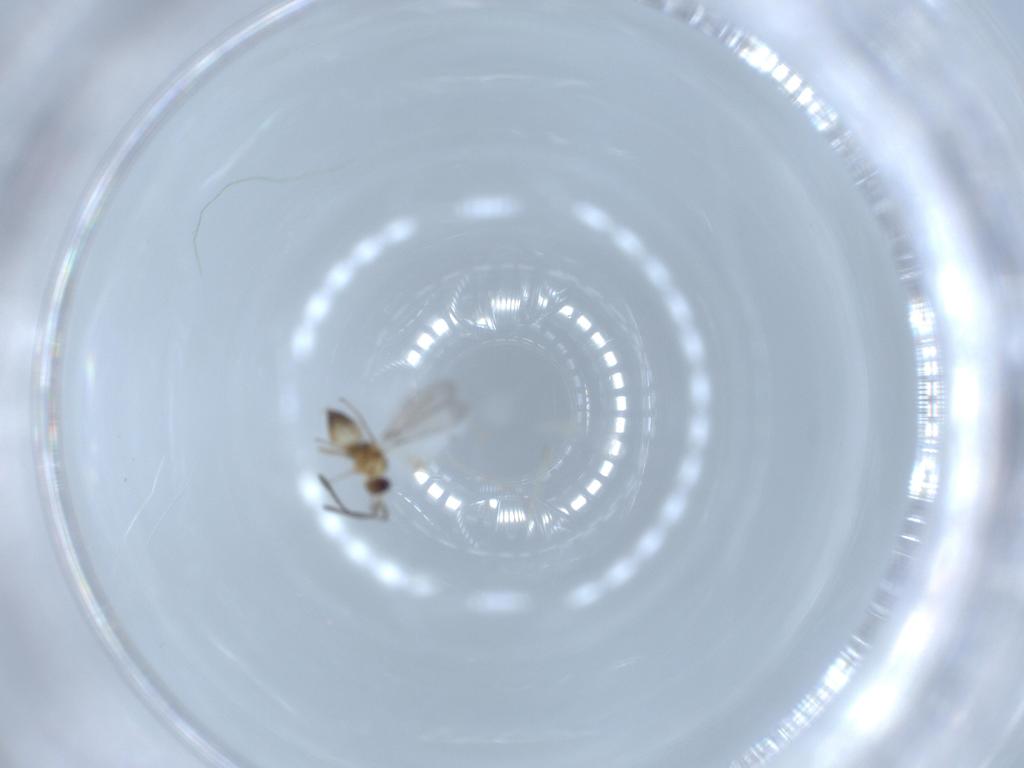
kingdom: Animalia
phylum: Arthropoda
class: Insecta
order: Hymenoptera
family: Mymaridae
